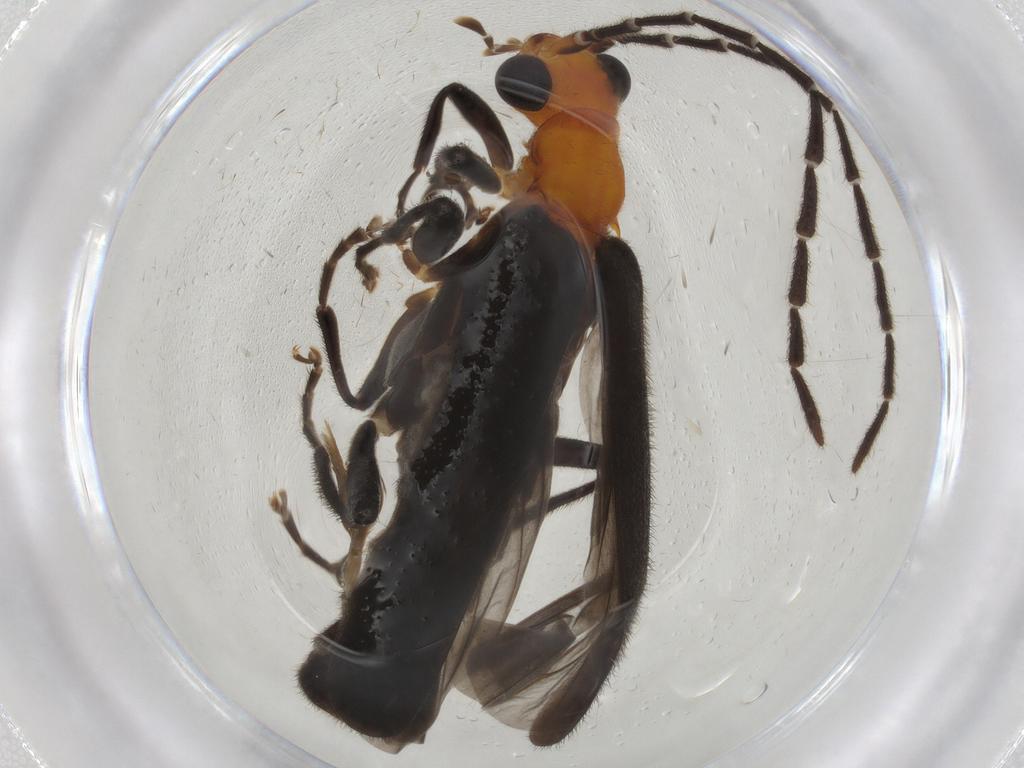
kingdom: Animalia
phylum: Arthropoda
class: Insecta
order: Coleoptera
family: Cantharidae
